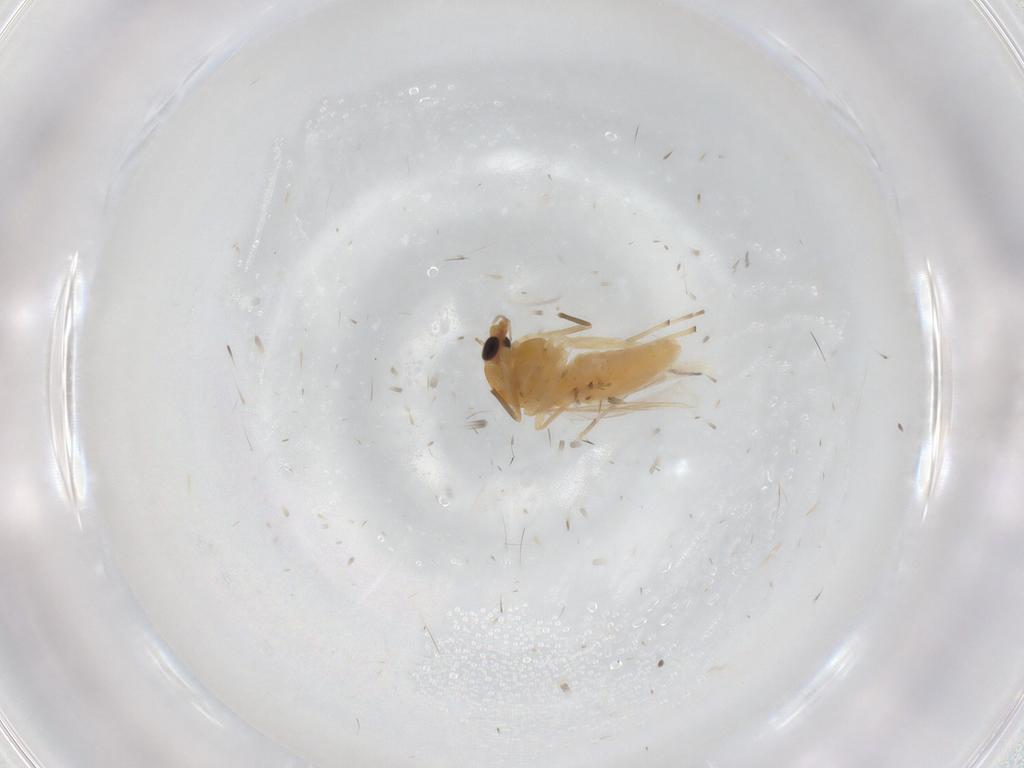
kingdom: Animalia
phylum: Arthropoda
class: Insecta
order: Diptera
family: Chironomidae
